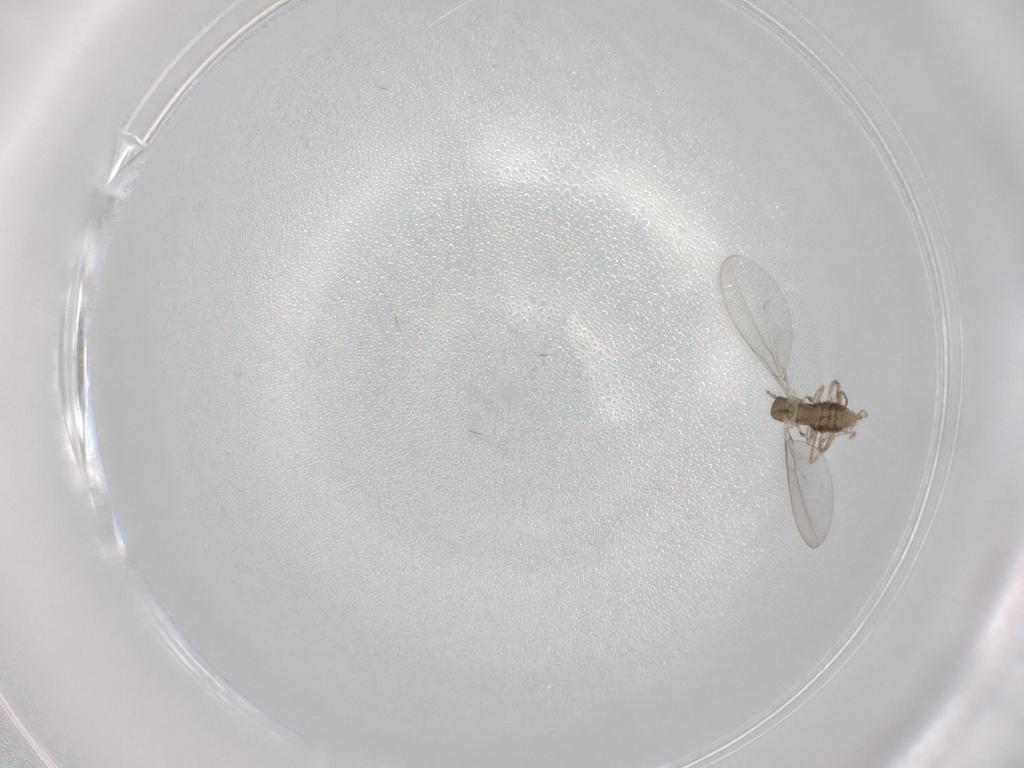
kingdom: Animalia
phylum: Arthropoda
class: Insecta
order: Diptera
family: Cecidomyiidae
